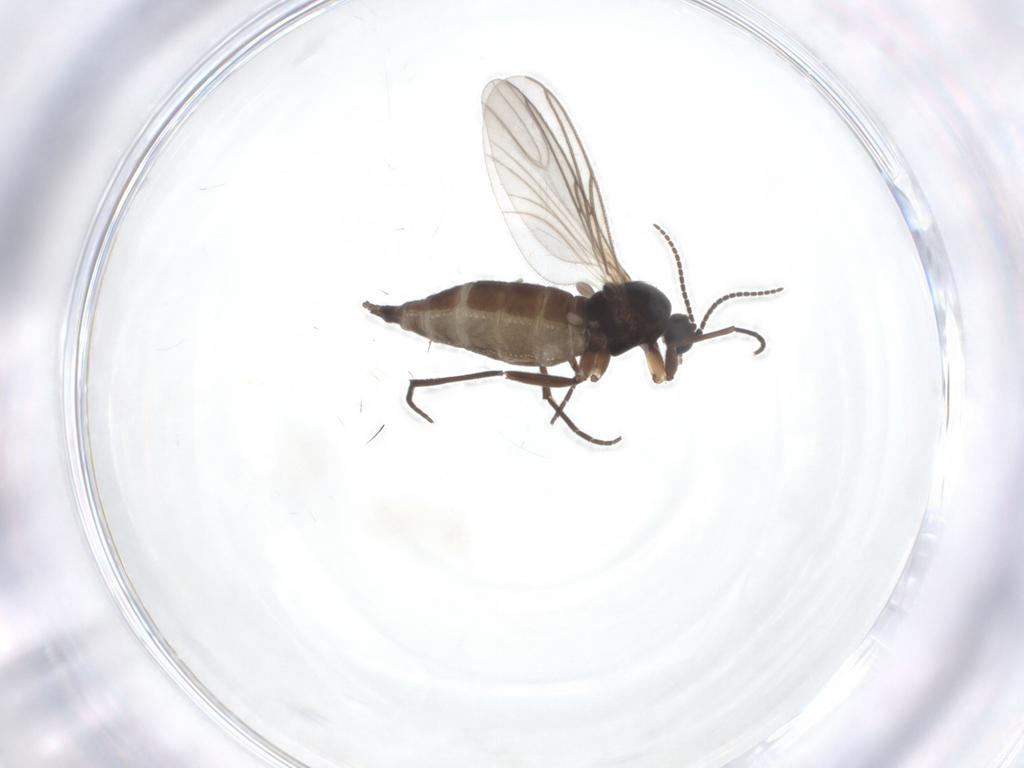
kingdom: Animalia
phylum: Arthropoda
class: Insecta
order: Diptera
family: Sciaridae
